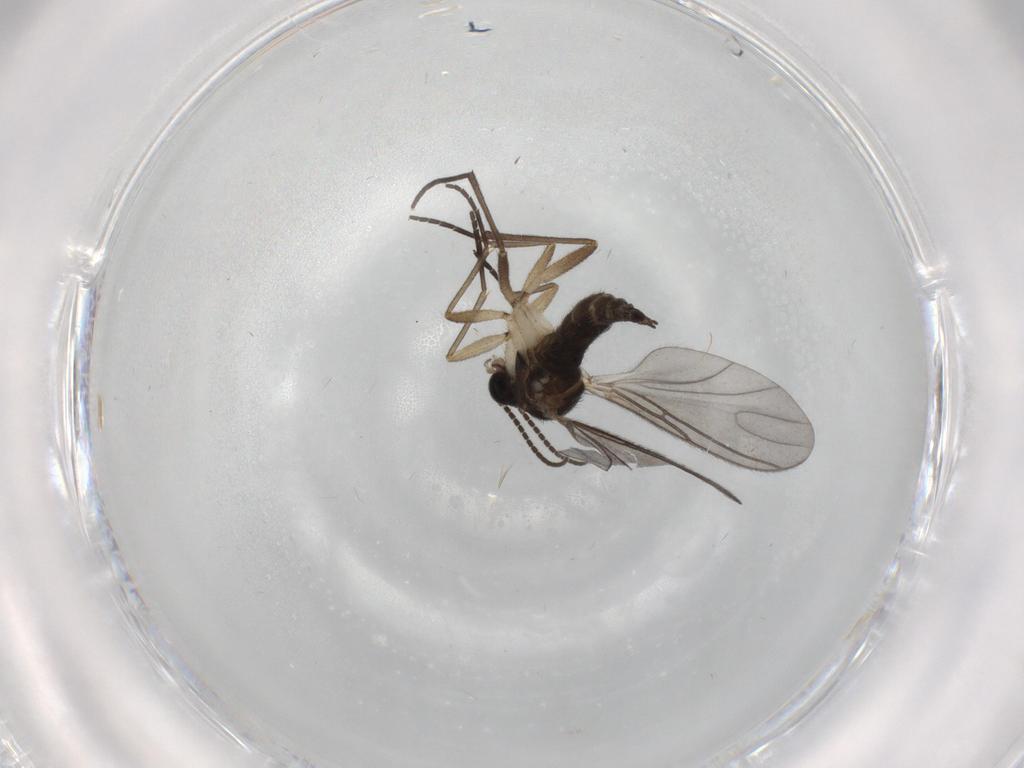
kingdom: Animalia
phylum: Arthropoda
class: Insecta
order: Diptera
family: Sciaridae
